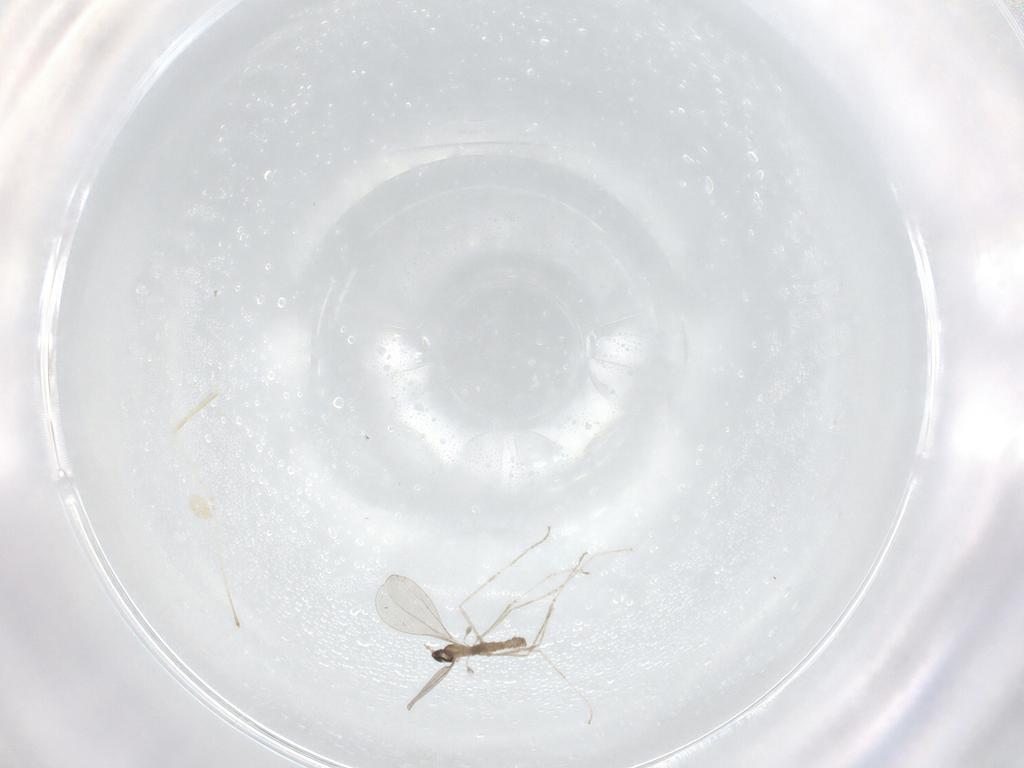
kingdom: Animalia
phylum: Arthropoda
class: Insecta
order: Diptera
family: Cecidomyiidae
